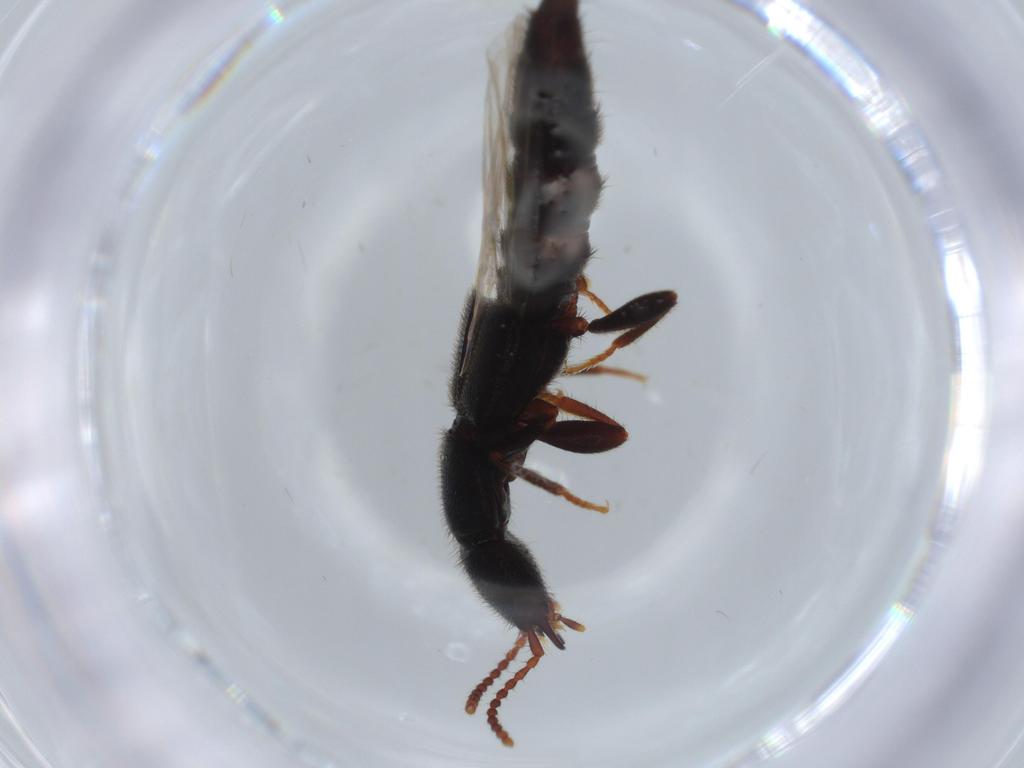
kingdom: Animalia
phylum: Arthropoda
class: Insecta
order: Coleoptera
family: Staphylinidae
